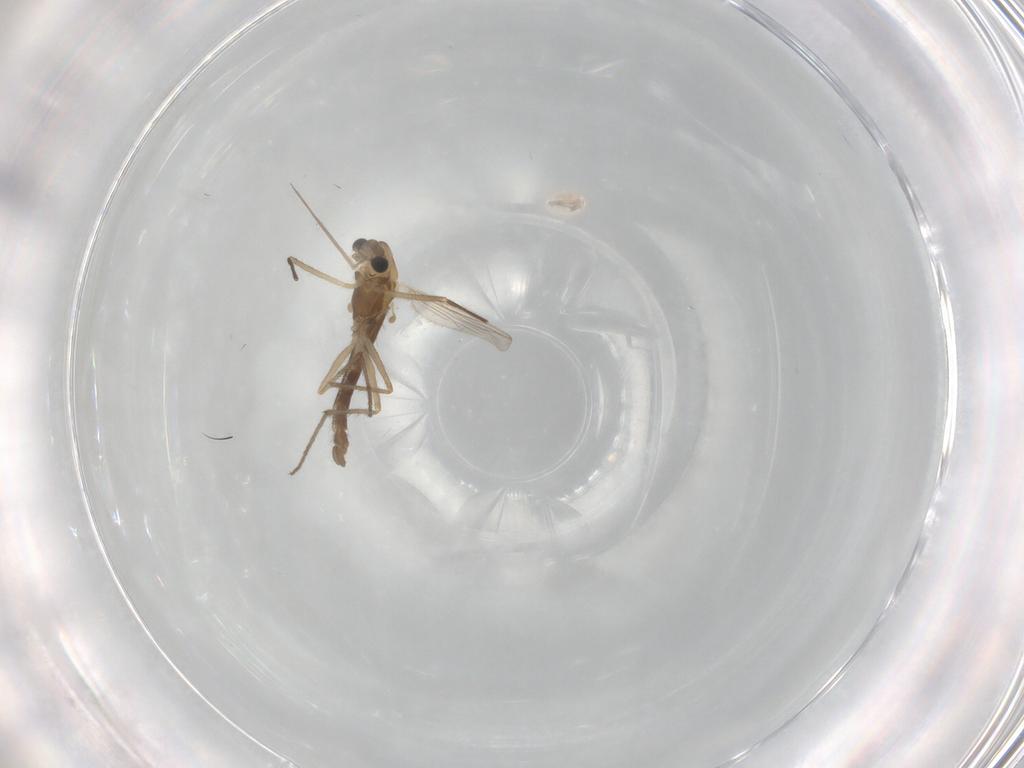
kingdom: Animalia
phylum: Arthropoda
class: Insecta
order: Diptera
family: Chironomidae
